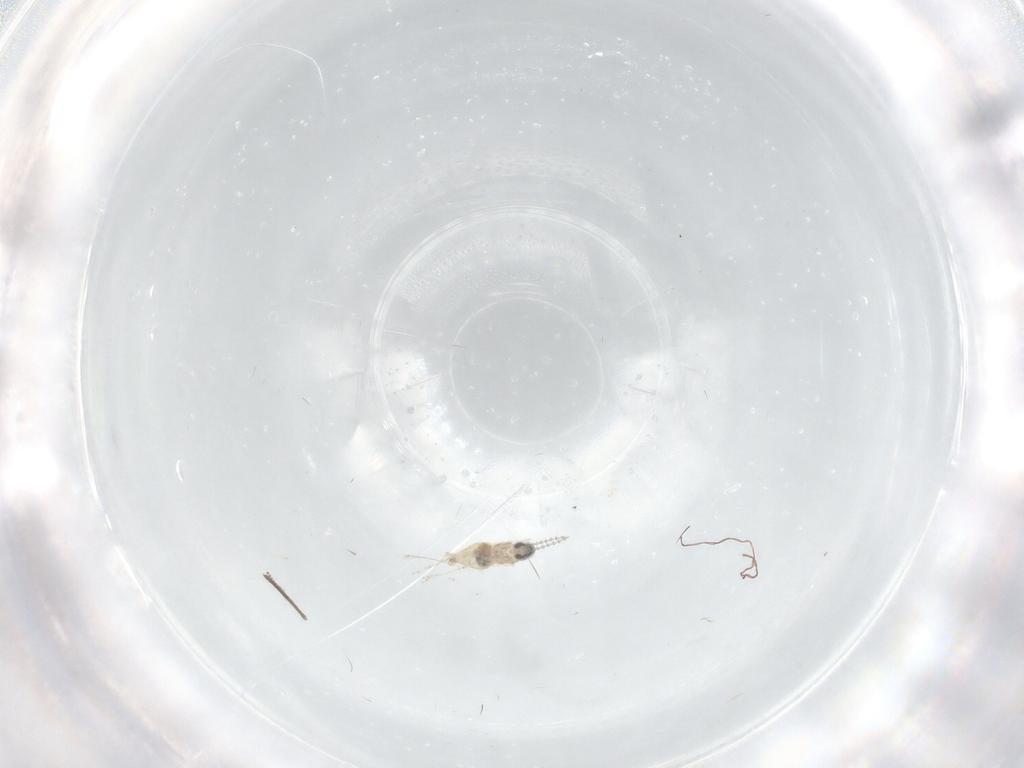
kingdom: Animalia
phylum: Arthropoda
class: Insecta
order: Diptera
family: Cecidomyiidae
